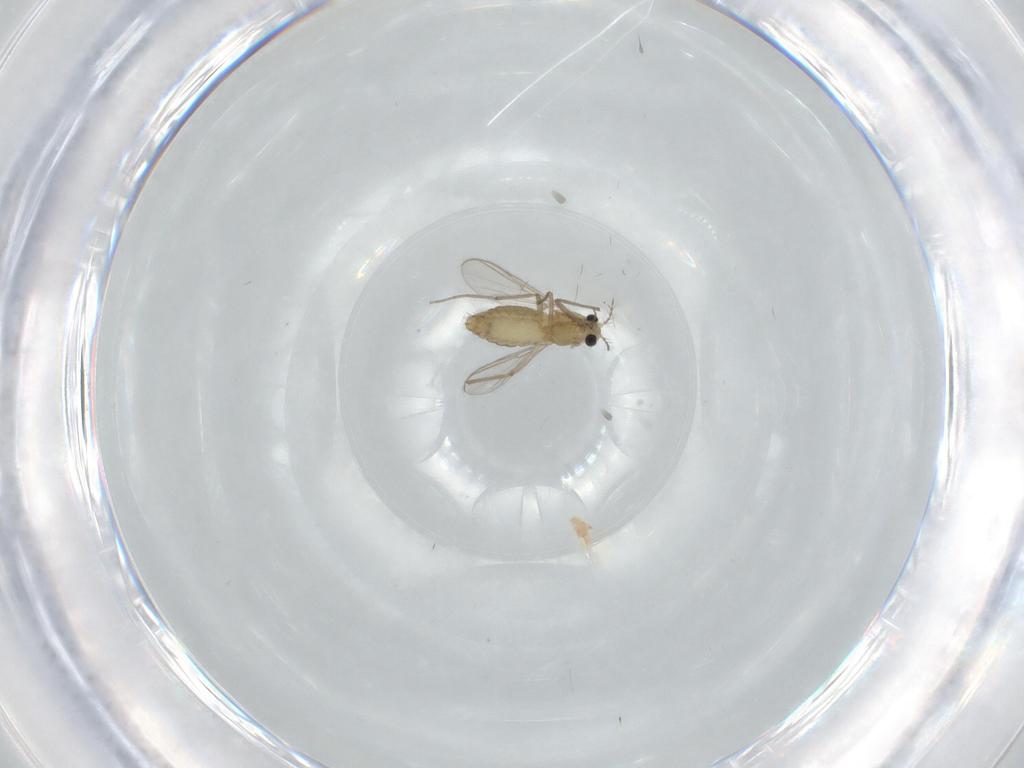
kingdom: Animalia
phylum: Arthropoda
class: Insecta
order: Diptera
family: Chironomidae
